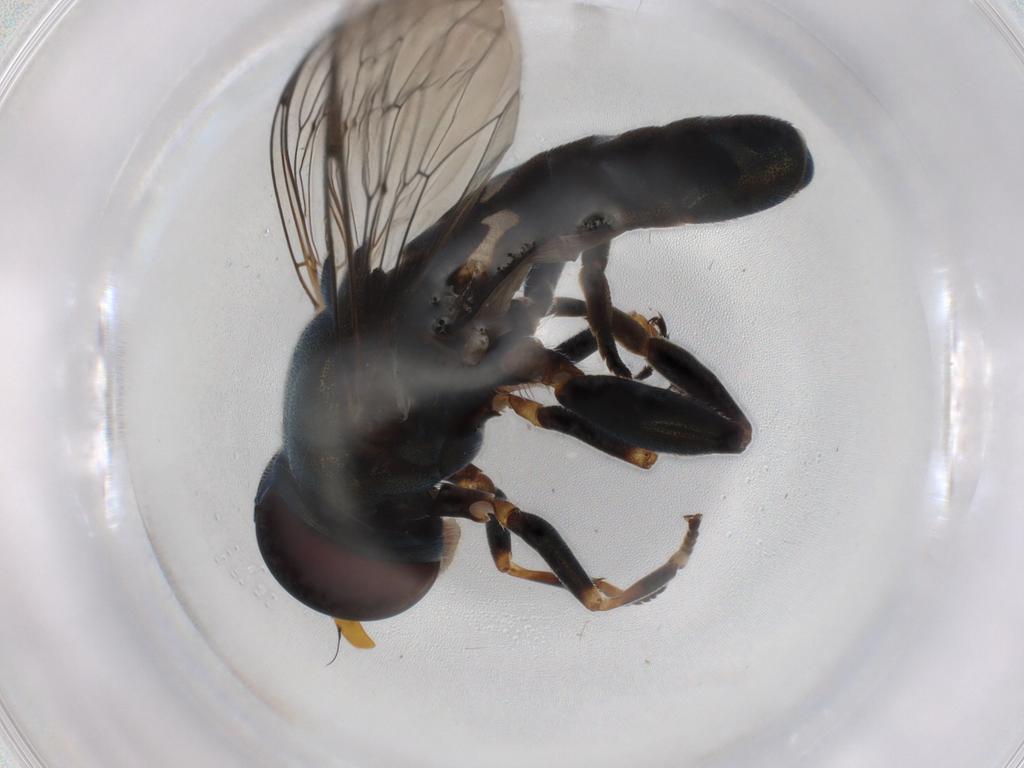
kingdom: Animalia
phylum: Arthropoda
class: Insecta
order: Diptera
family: Syrphidae
